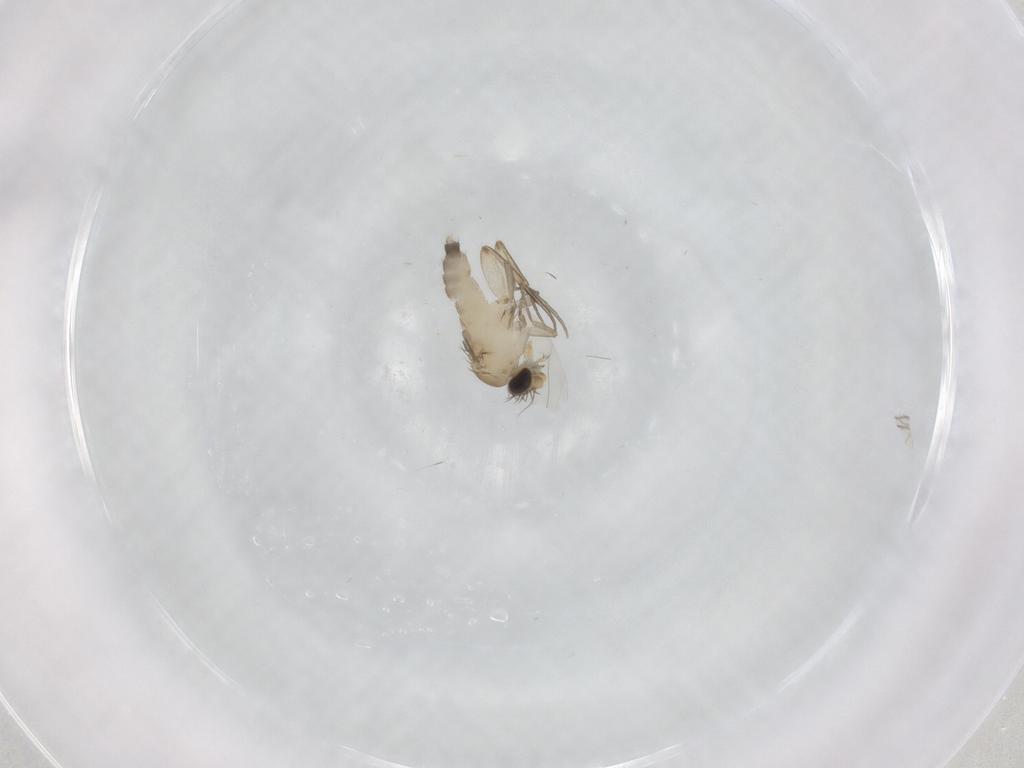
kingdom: Animalia
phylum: Arthropoda
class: Insecta
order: Diptera
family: Phoridae
